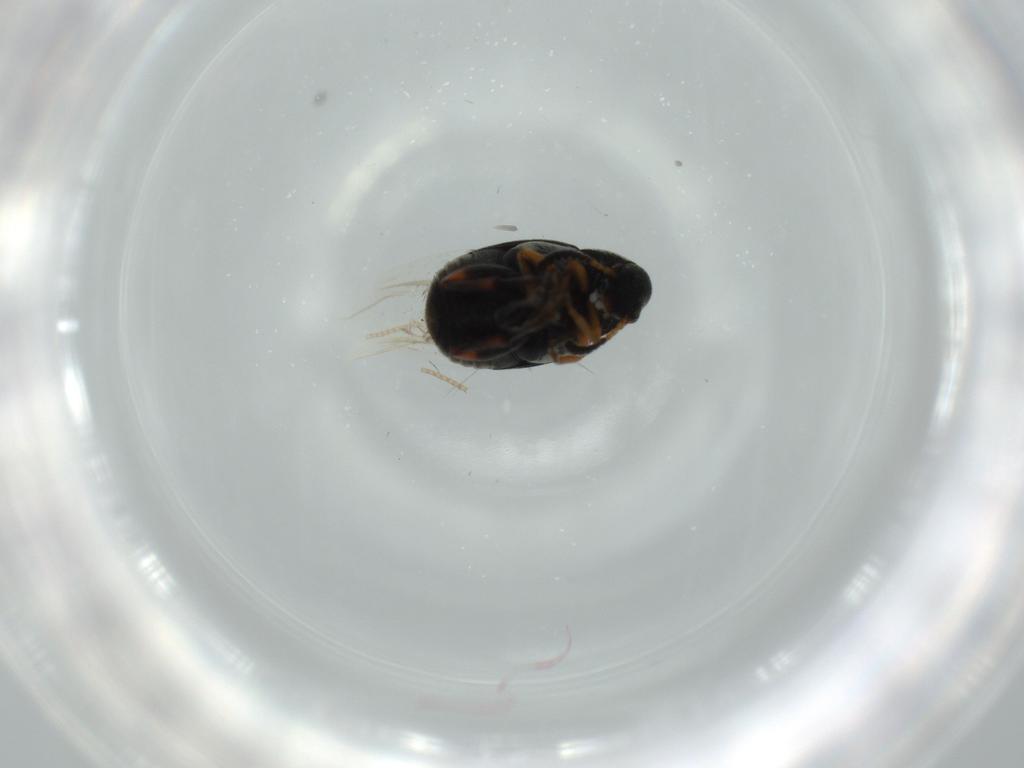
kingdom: Animalia
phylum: Arthropoda
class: Insecta
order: Coleoptera
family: Chrysomelidae
